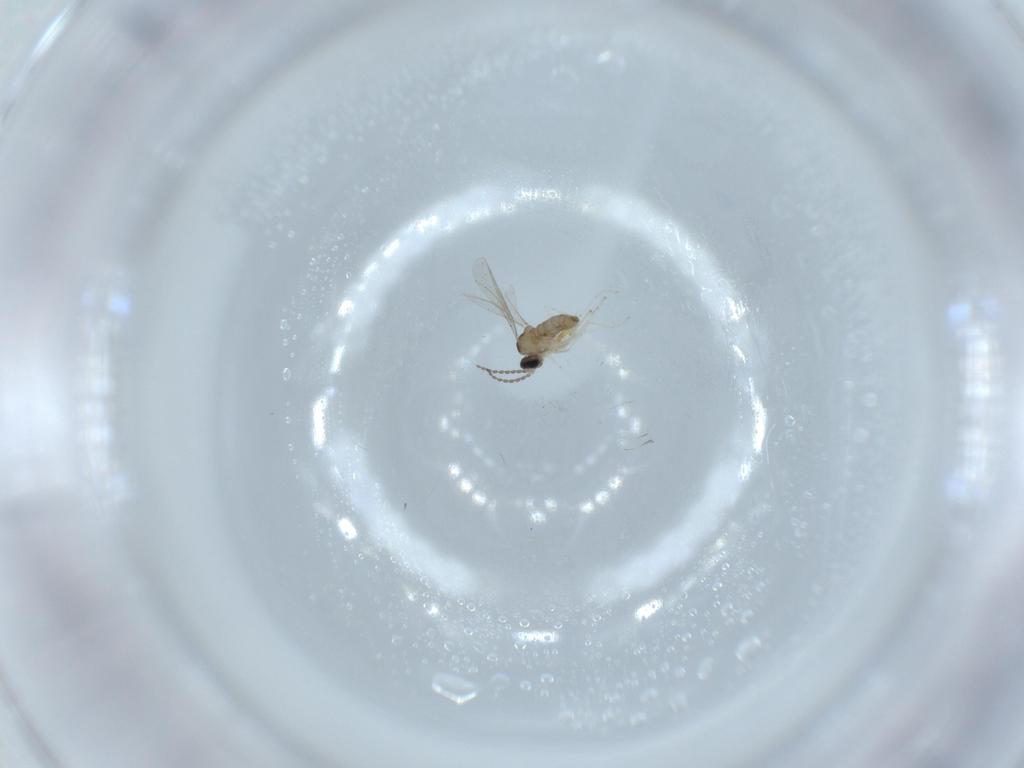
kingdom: Animalia
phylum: Arthropoda
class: Insecta
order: Diptera
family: Cecidomyiidae
